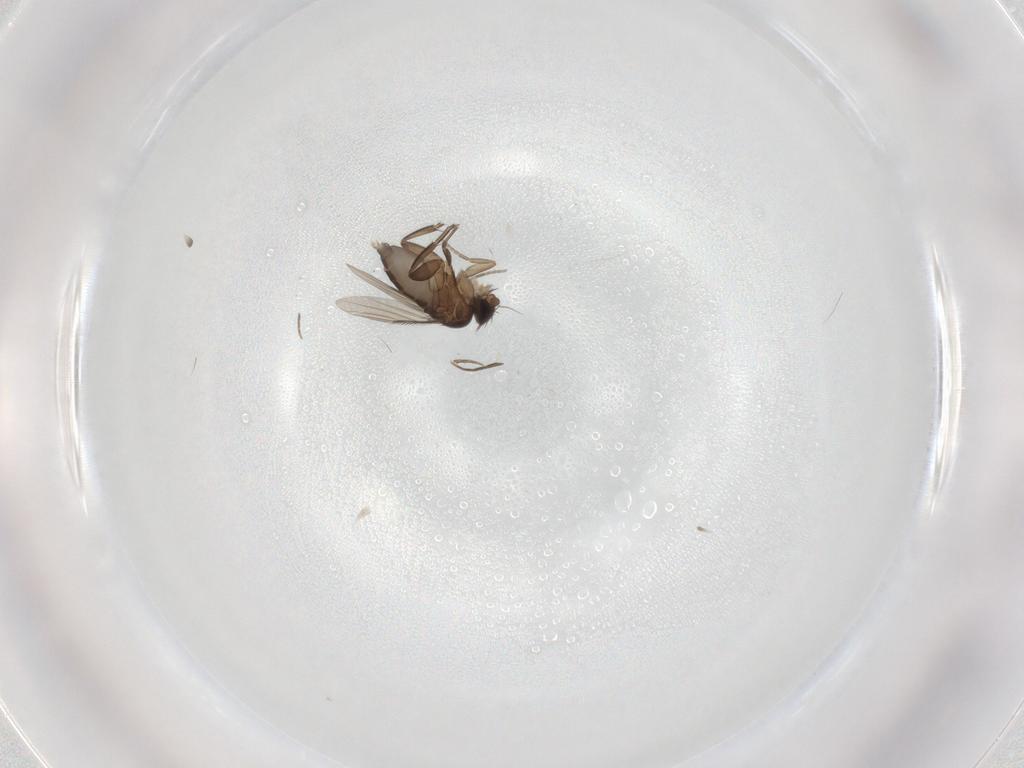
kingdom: Animalia
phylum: Arthropoda
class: Insecta
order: Diptera
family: Phoridae
